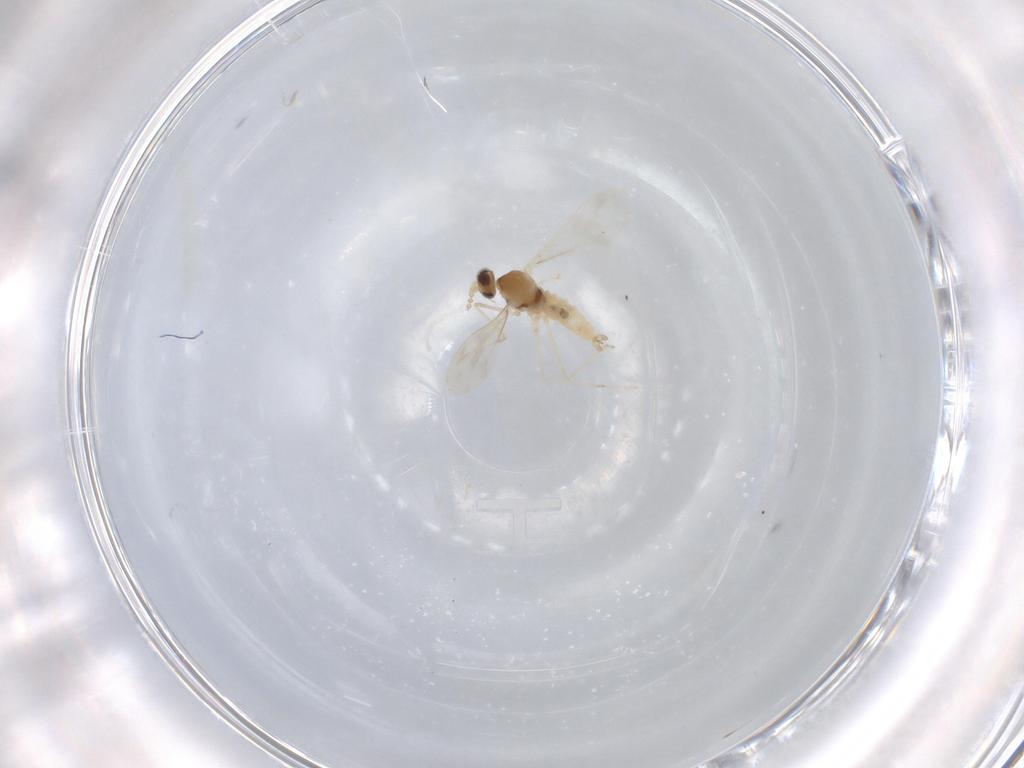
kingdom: Animalia
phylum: Arthropoda
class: Insecta
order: Diptera
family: Cecidomyiidae
